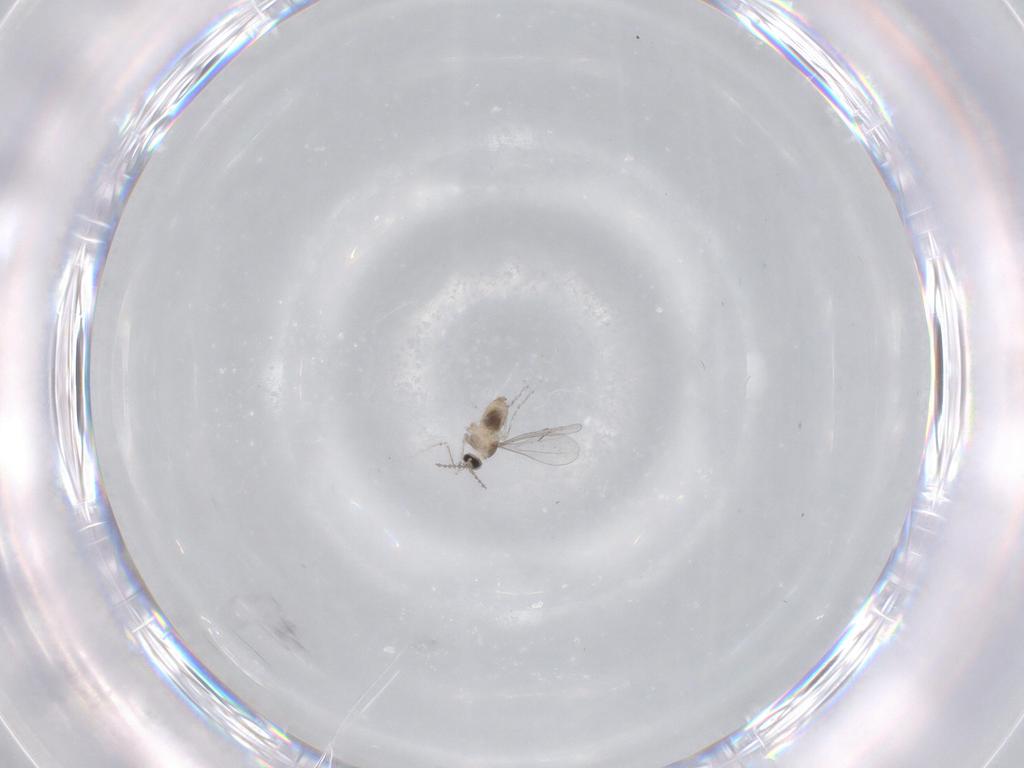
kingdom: Animalia
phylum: Arthropoda
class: Insecta
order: Diptera
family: Cecidomyiidae
